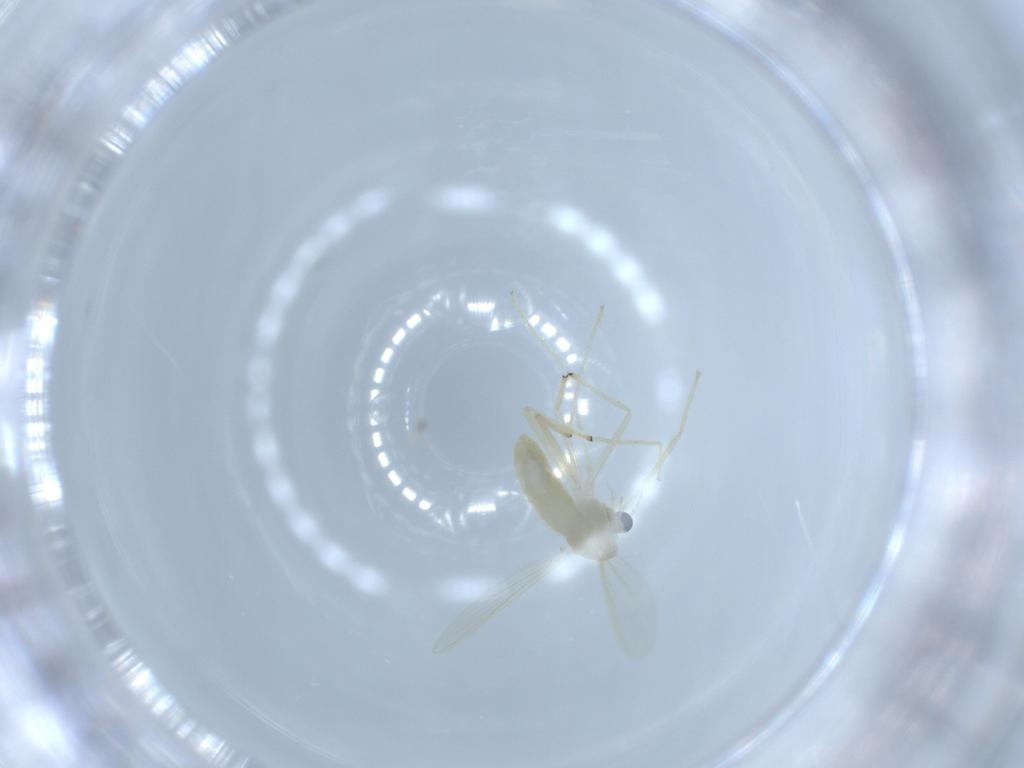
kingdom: Animalia
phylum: Arthropoda
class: Insecta
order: Diptera
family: Chironomidae
